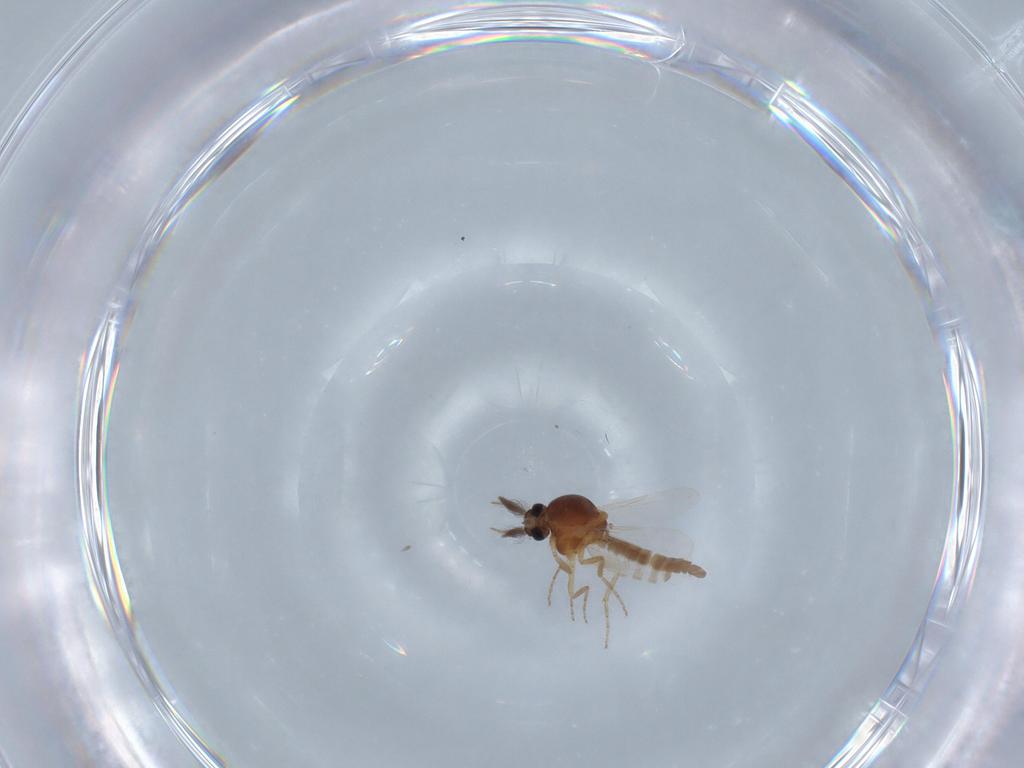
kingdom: Animalia
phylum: Arthropoda
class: Insecta
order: Diptera
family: Ceratopogonidae
